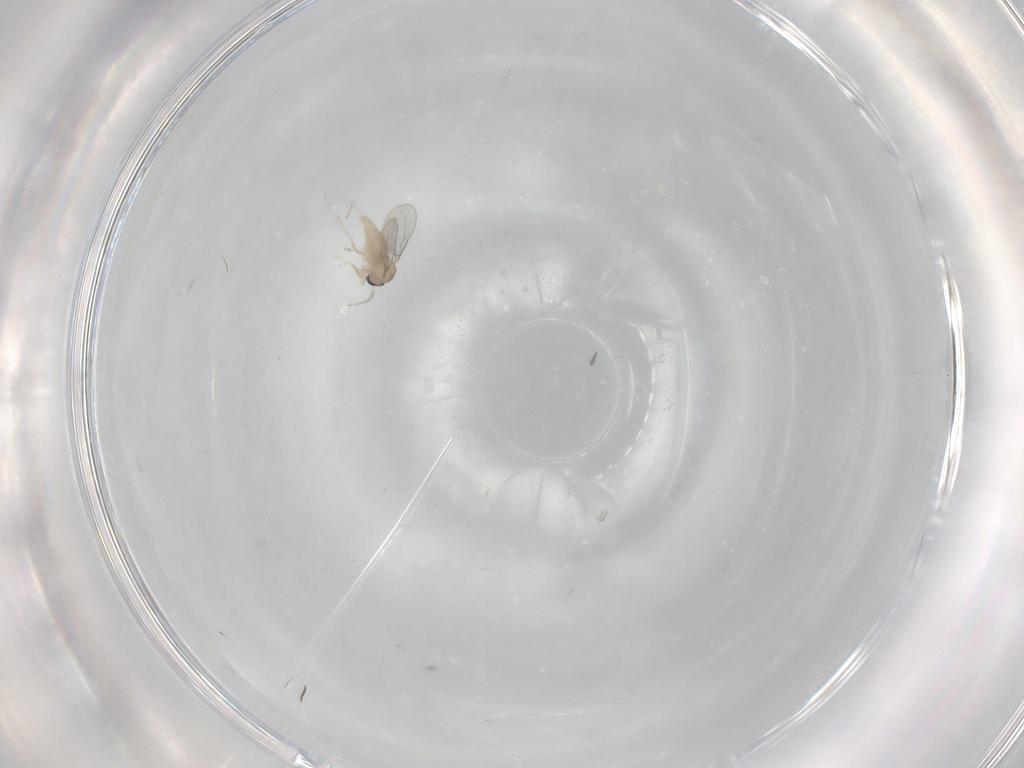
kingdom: Animalia
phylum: Arthropoda
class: Insecta
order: Diptera
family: Cecidomyiidae
